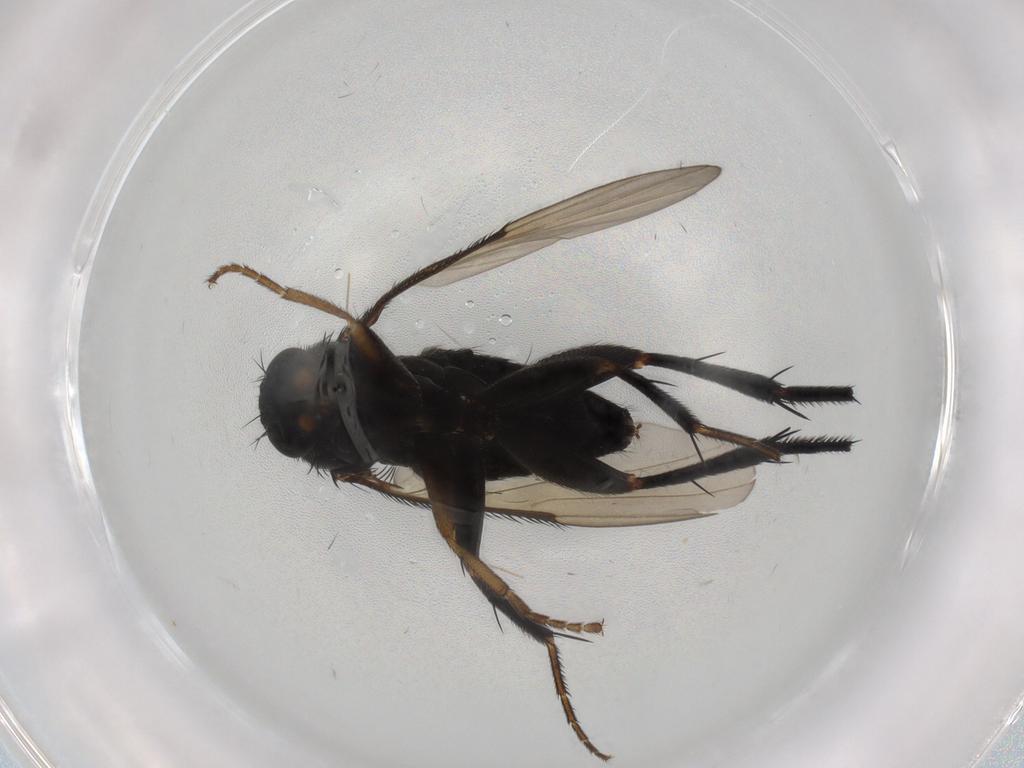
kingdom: Animalia
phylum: Arthropoda
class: Insecta
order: Diptera
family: Phoridae
